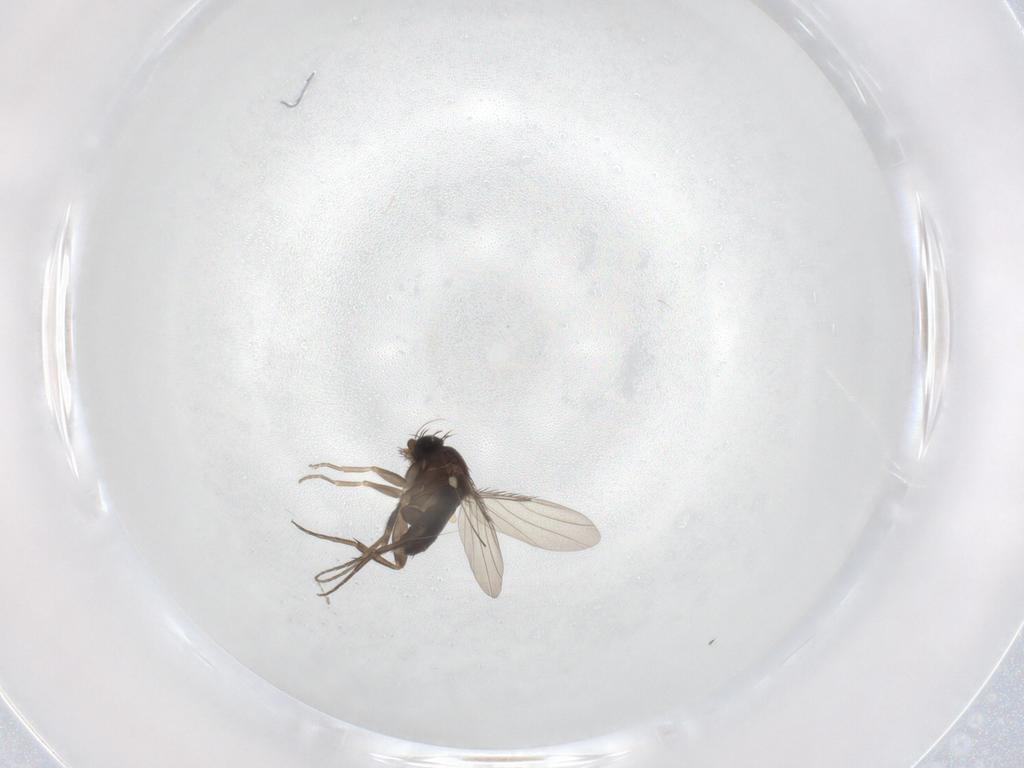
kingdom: Animalia
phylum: Arthropoda
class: Insecta
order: Diptera
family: Phoridae
